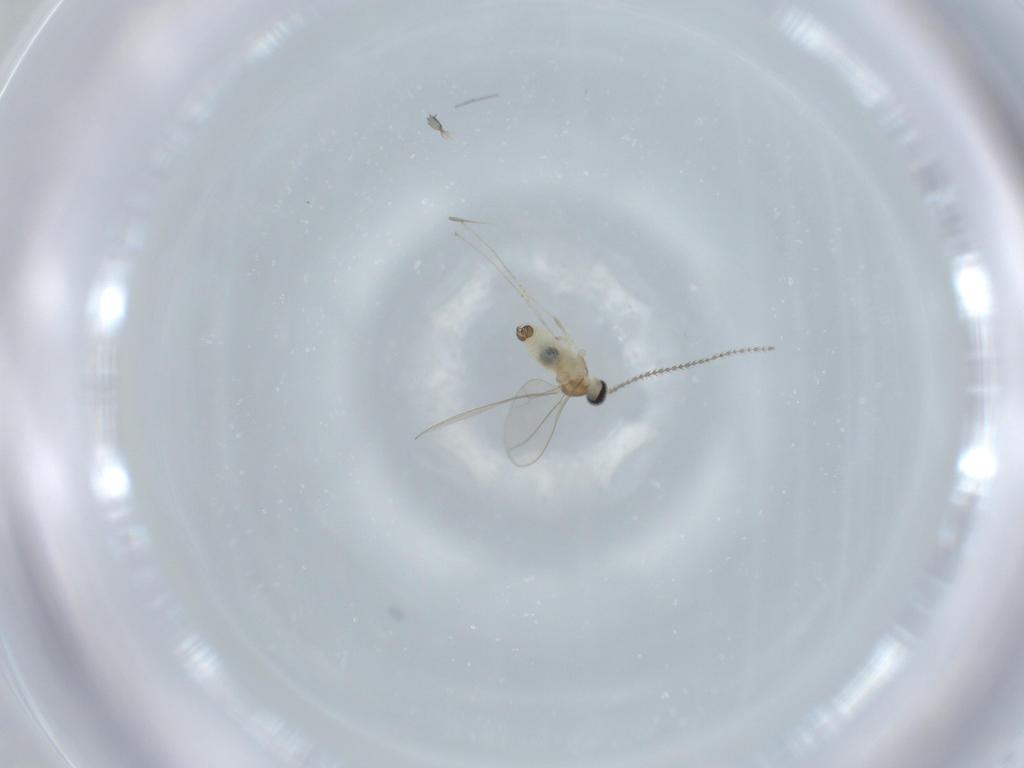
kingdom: Animalia
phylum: Arthropoda
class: Insecta
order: Diptera
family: Cecidomyiidae
